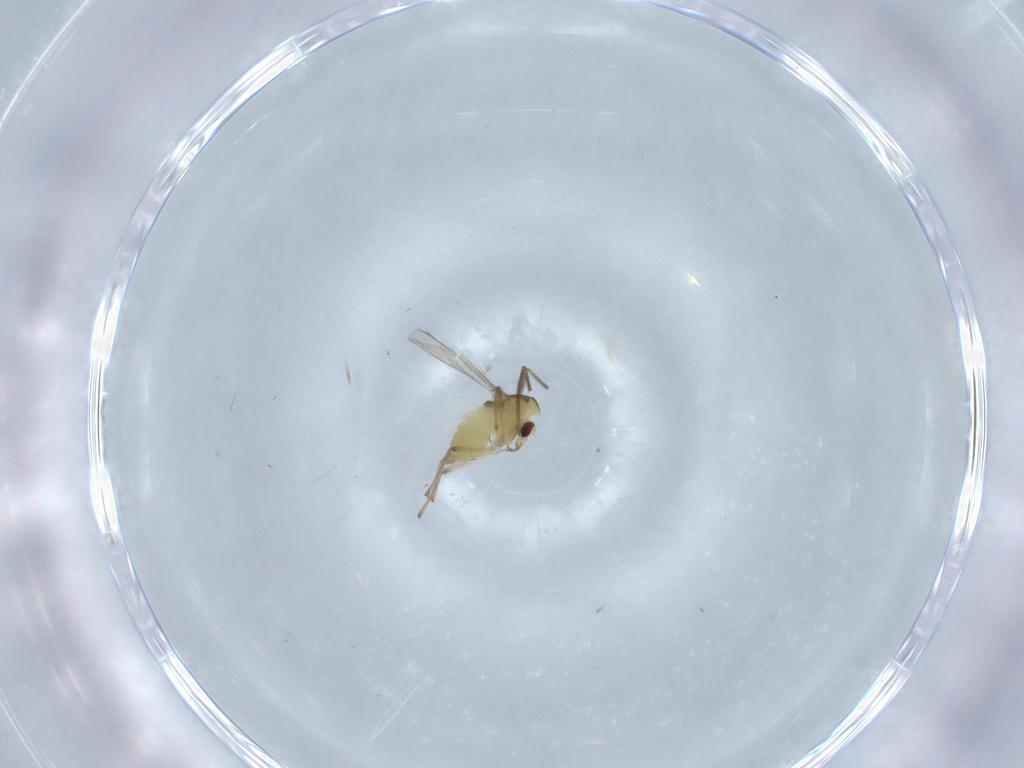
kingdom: Animalia
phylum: Arthropoda
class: Insecta
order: Diptera
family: Chironomidae
